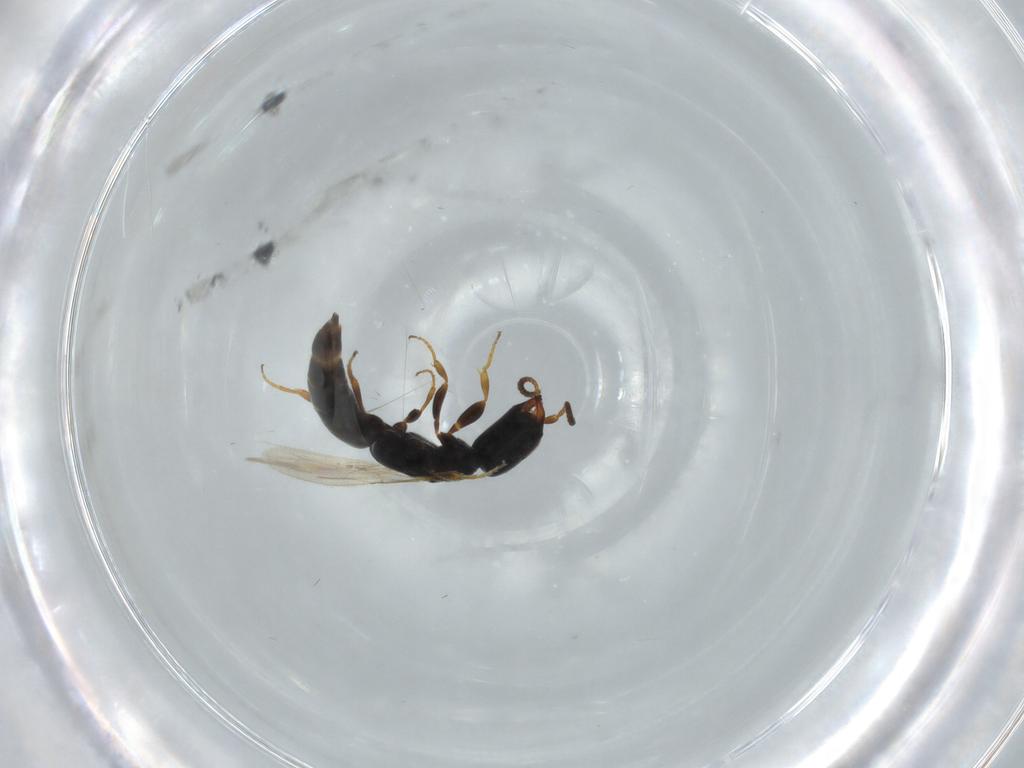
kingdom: Animalia
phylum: Arthropoda
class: Insecta
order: Hymenoptera
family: Bethylidae
